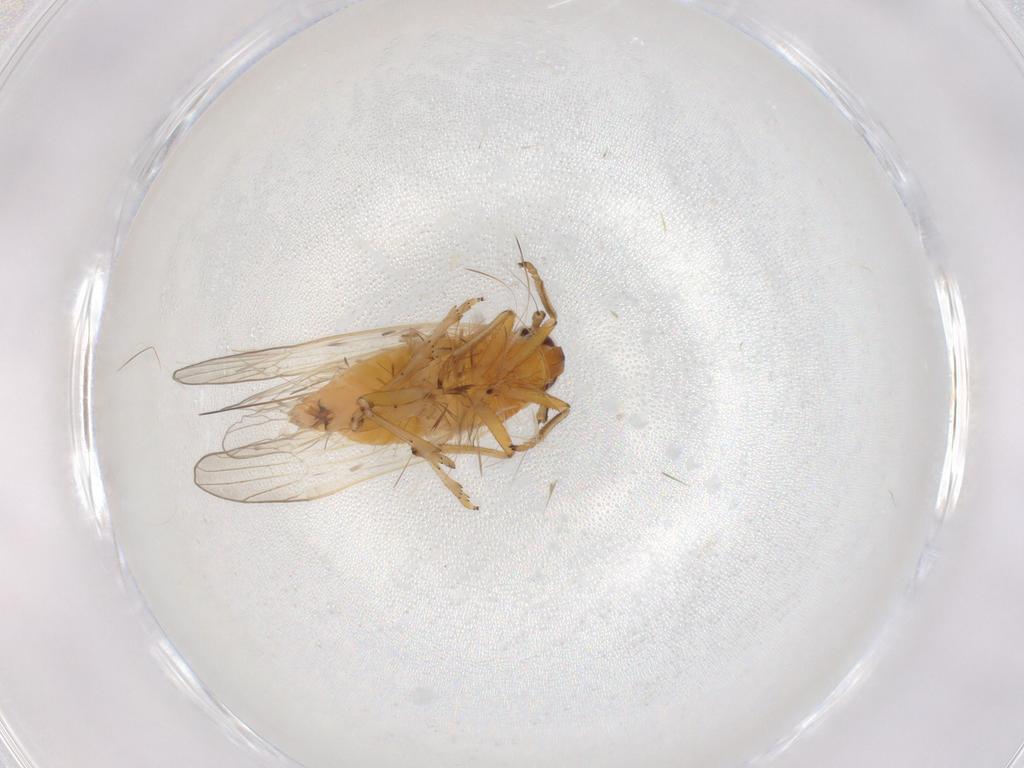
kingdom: Animalia
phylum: Arthropoda
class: Insecta
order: Hemiptera
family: Delphacidae
